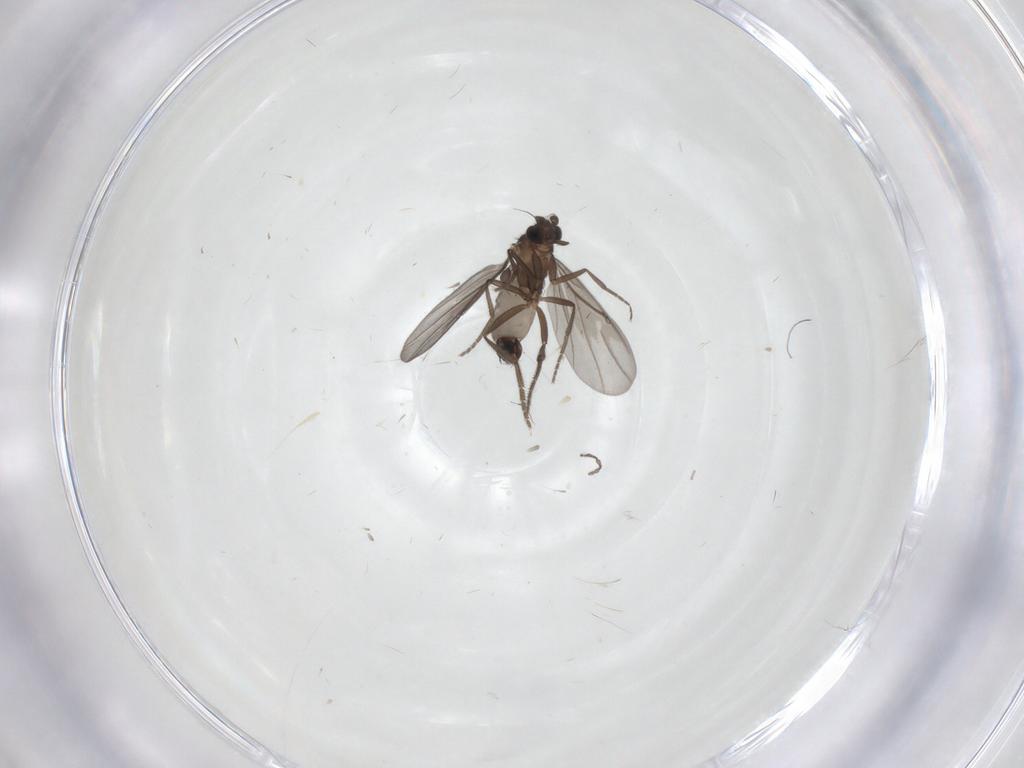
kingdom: Animalia
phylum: Arthropoda
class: Insecta
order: Diptera
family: Phoridae
